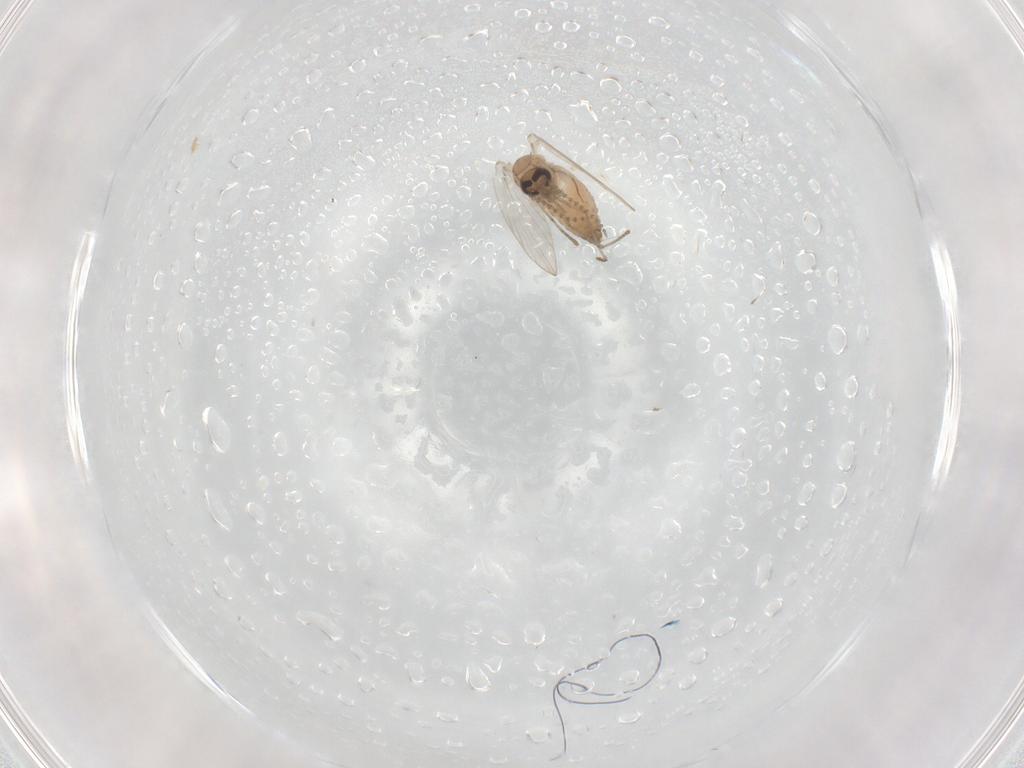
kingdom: Animalia
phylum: Arthropoda
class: Insecta
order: Diptera
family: Psychodidae
